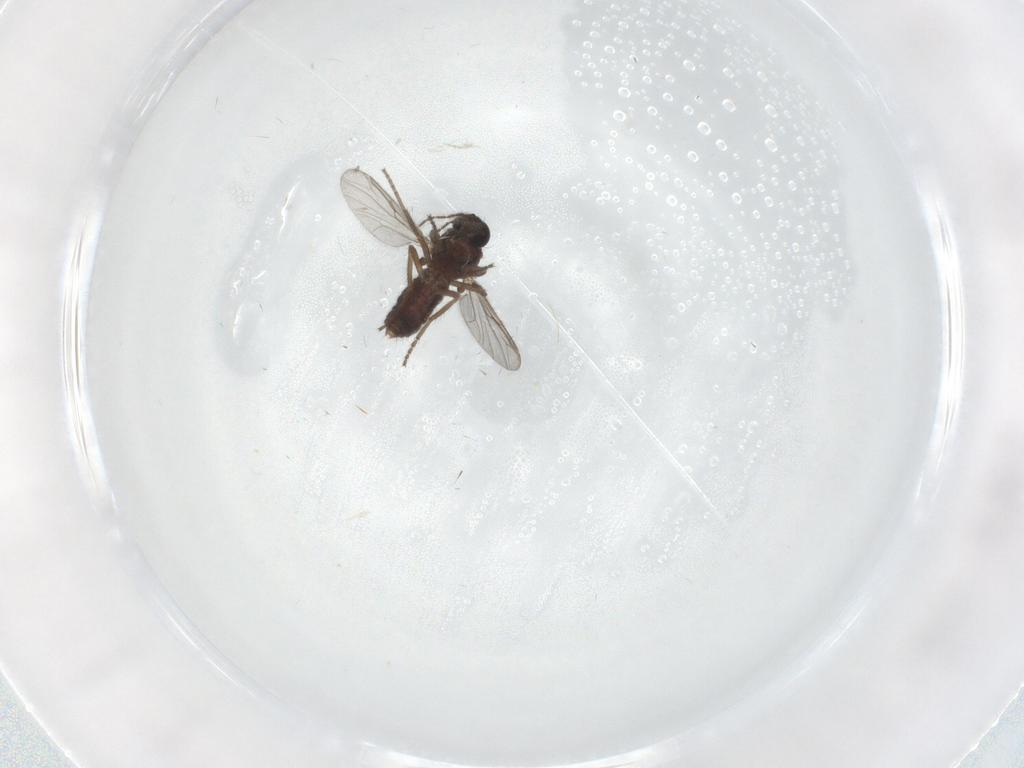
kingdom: Animalia
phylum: Arthropoda
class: Insecta
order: Diptera
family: Ceratopogonidae
